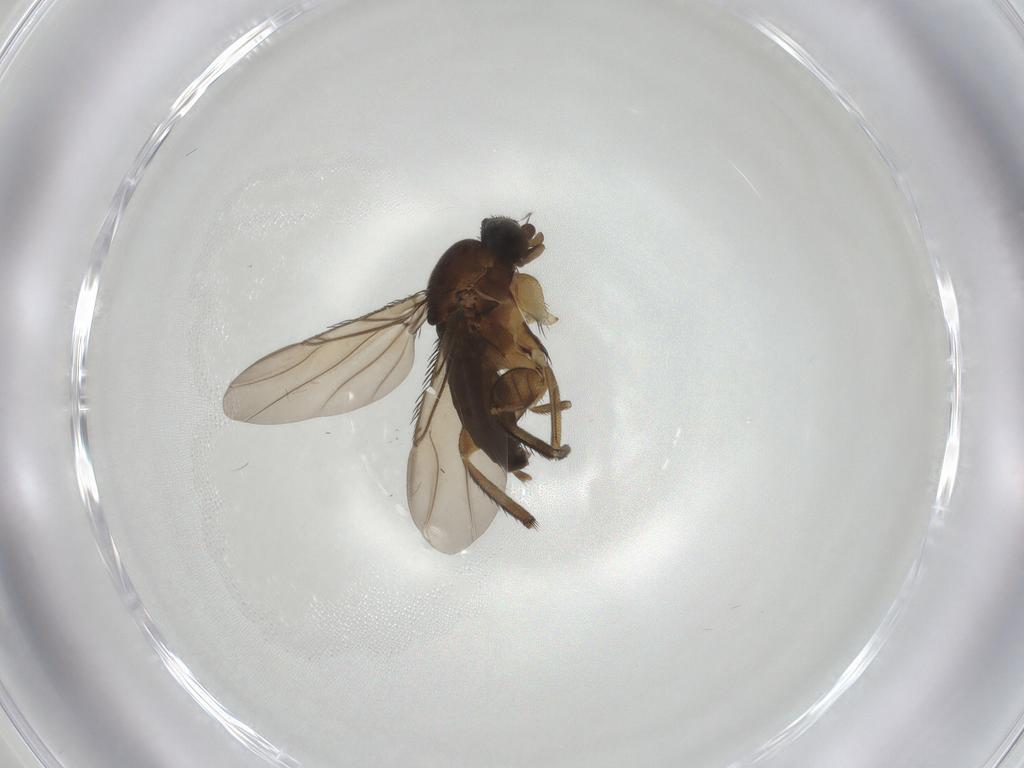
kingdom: Animalia
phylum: Arthropoda
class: Insecta
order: Diptera
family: Phoridae
